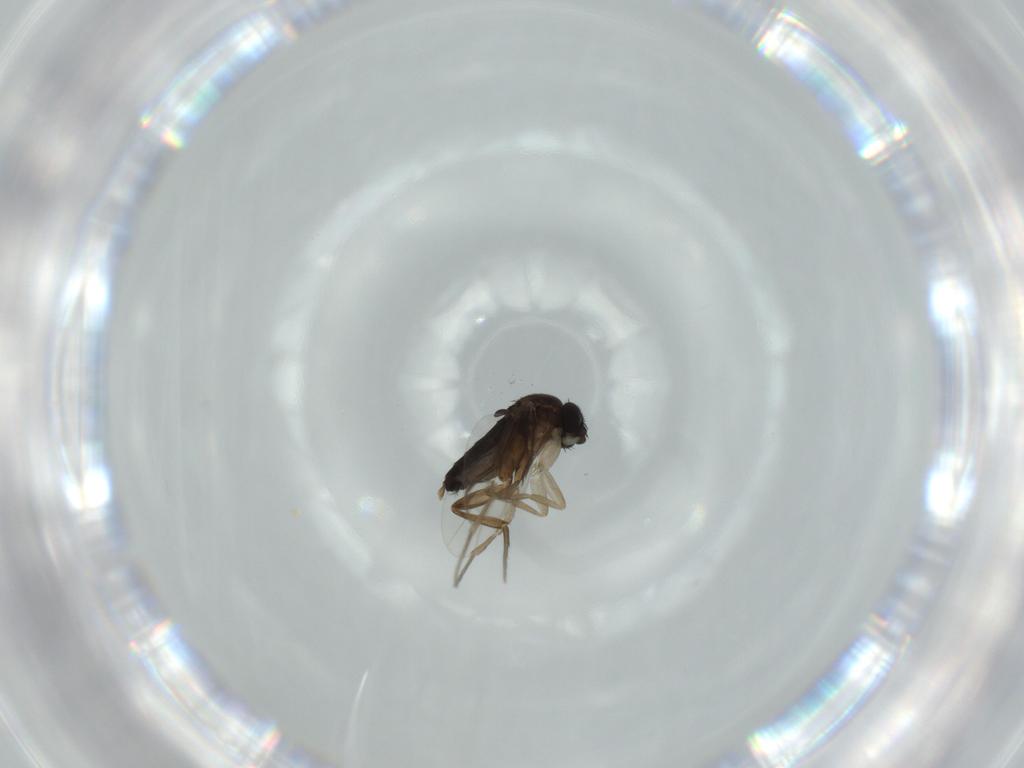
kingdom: Animalia
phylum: Arthropoda
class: Insecta
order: Diptera
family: Phoridae
